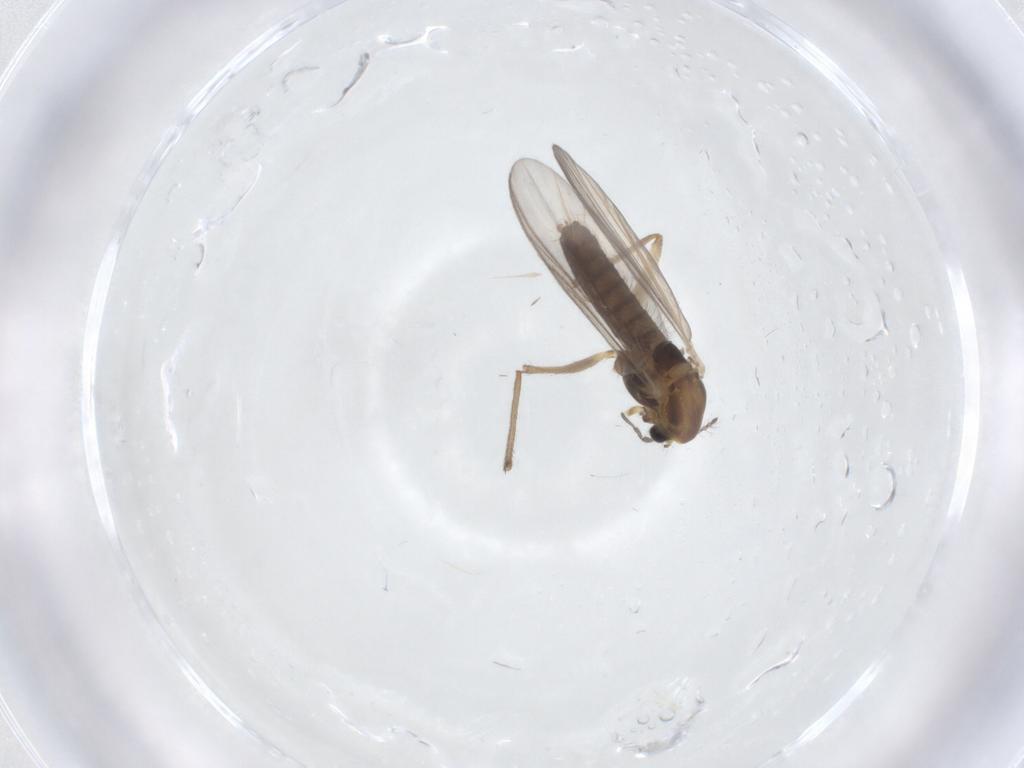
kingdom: Animalia
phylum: Arthropoda
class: Insecta
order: Diptera
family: Chironomidae
